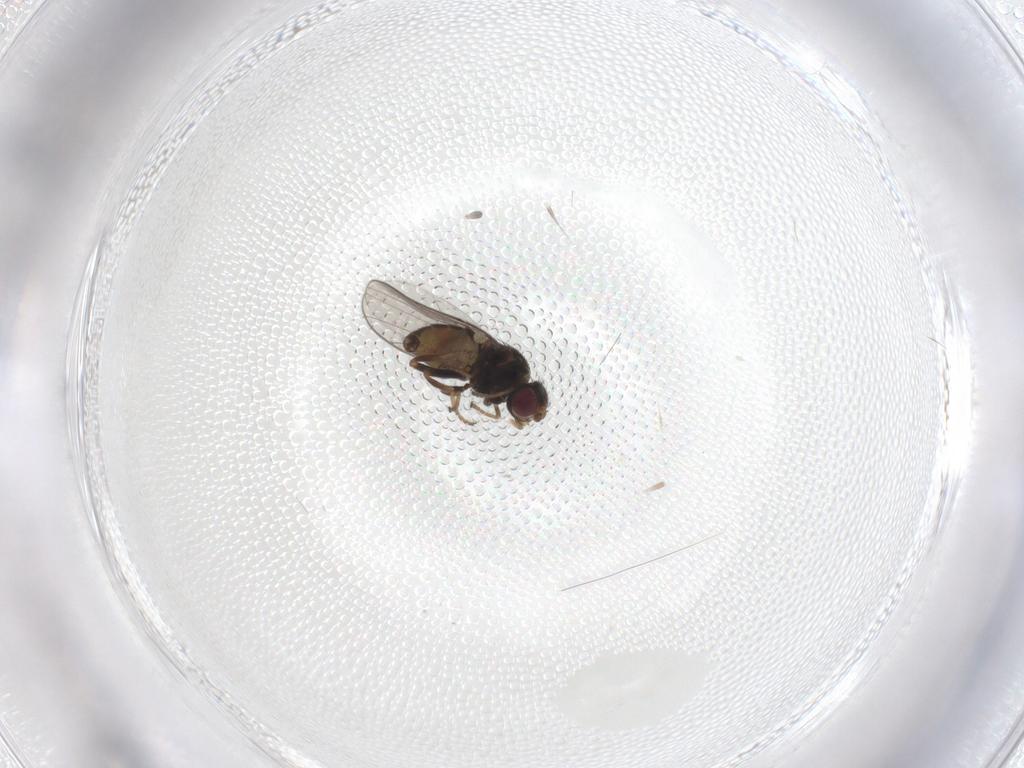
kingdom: Animalia
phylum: Arthropoda
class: Insecta
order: Diptera
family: Chloropidae
